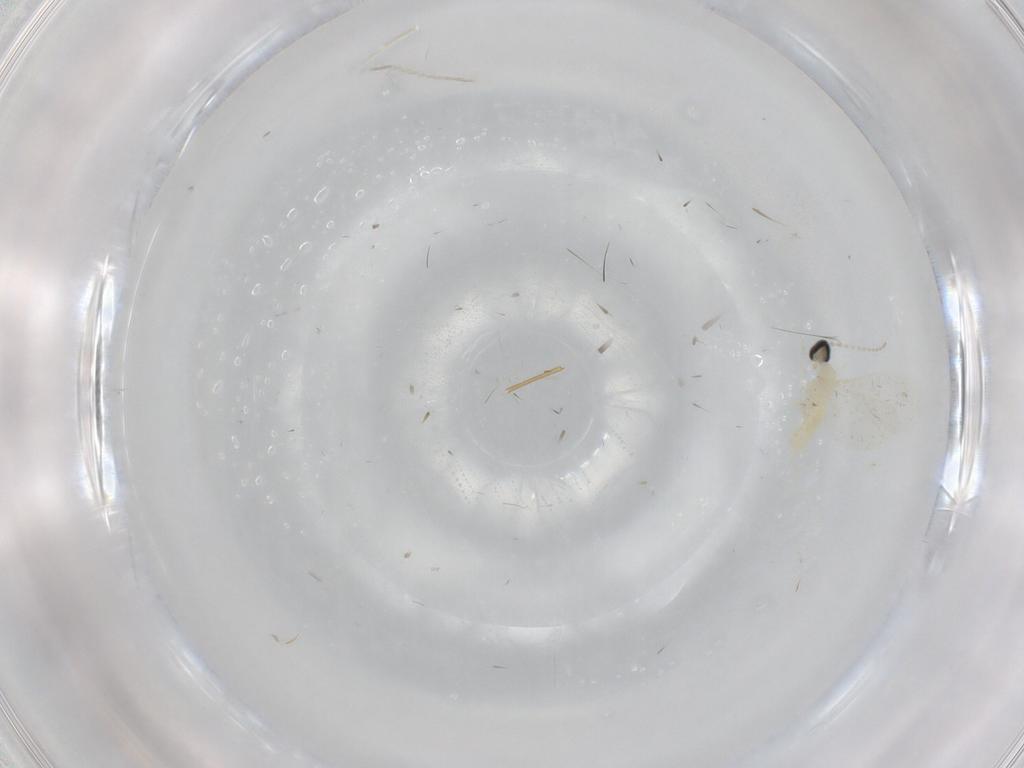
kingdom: Animalia
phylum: Arthropoda
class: Insecta
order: Diptera
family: Cecidomyiidae
